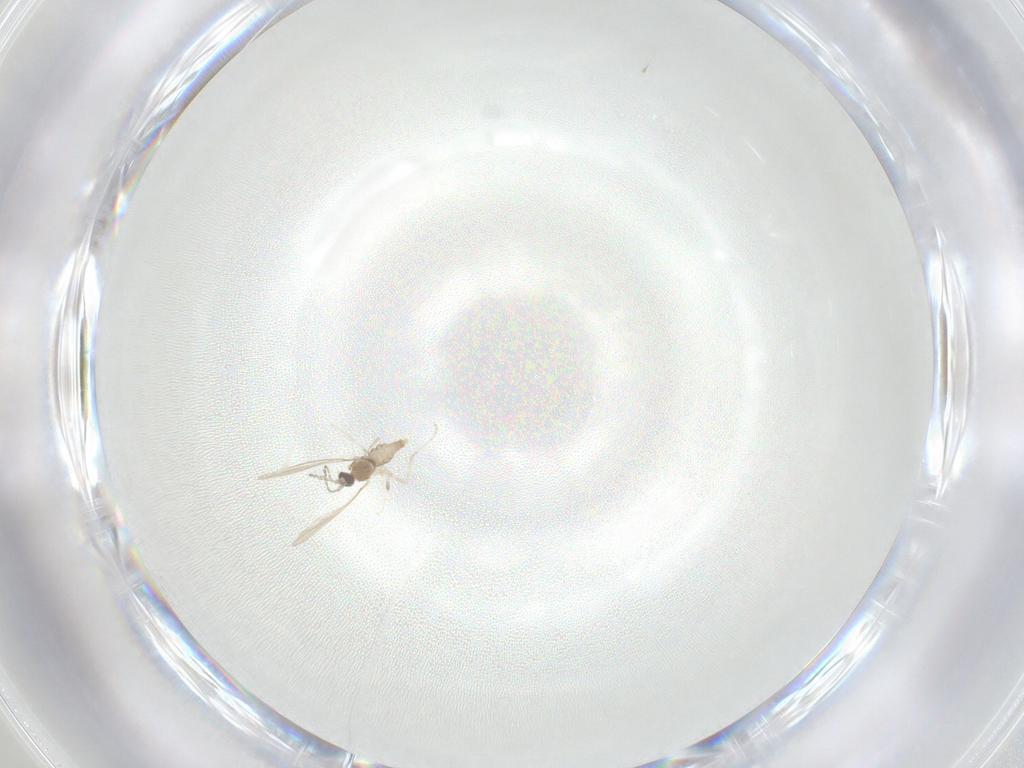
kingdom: Animalia
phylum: Arthropoda
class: Insecta
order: Diptera
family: Cecidomyiidae
